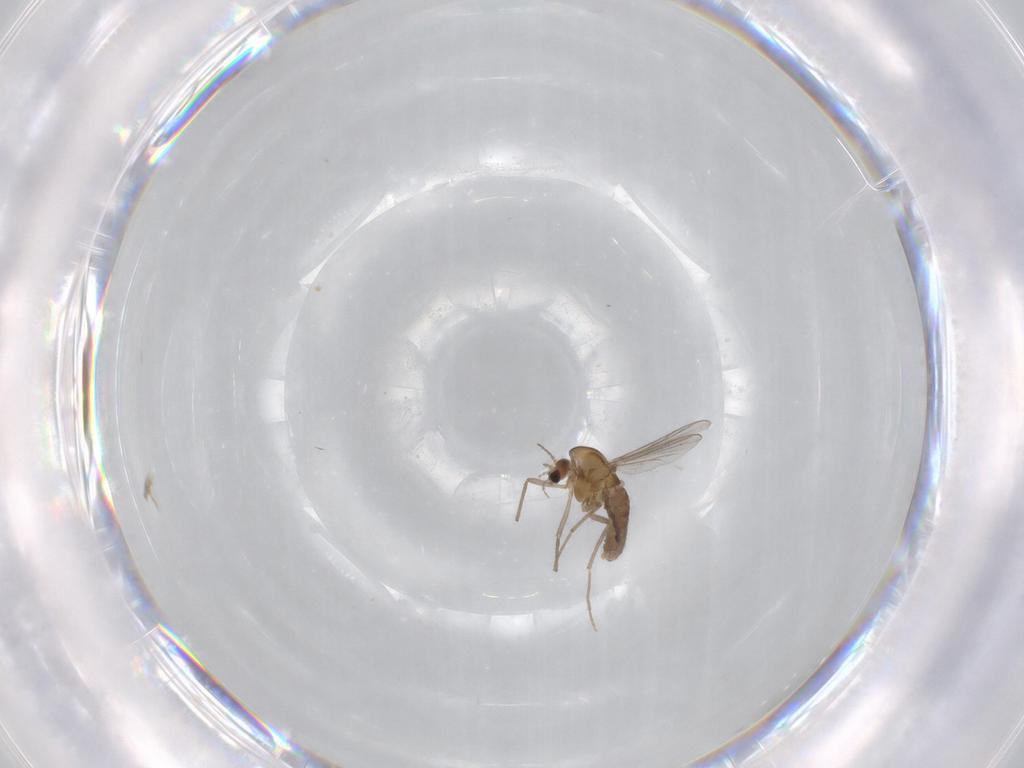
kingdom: Animalia
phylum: Arthropoda
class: Insecta
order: Diptera
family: Chironomidae
